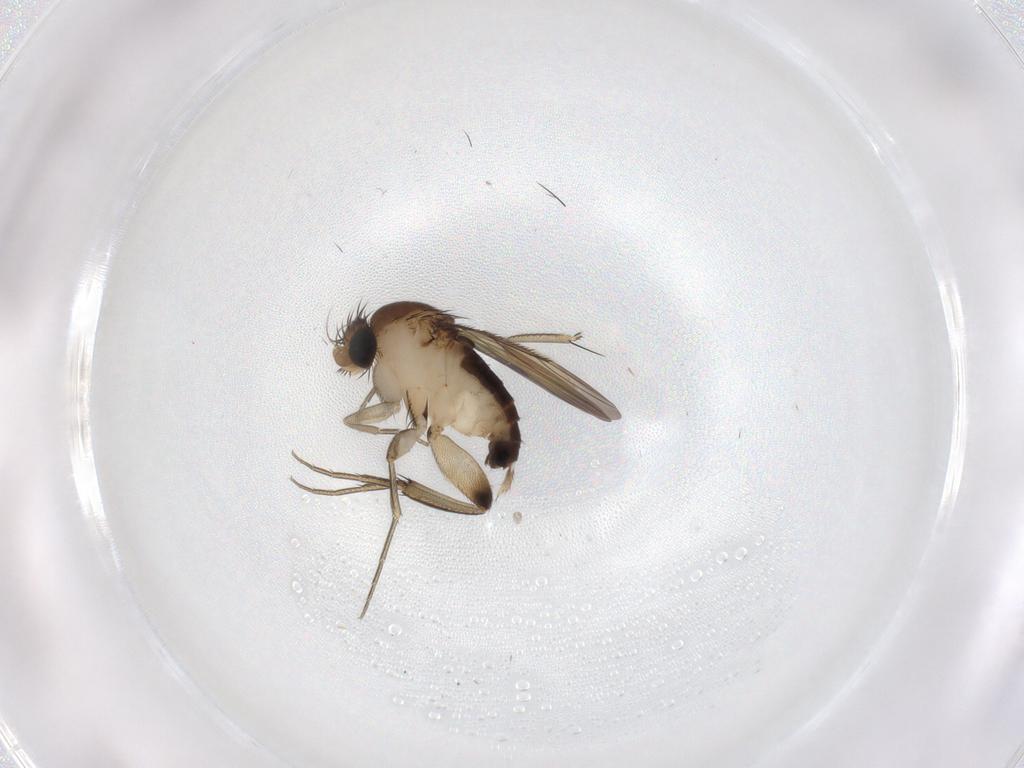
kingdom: Animalia
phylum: Arthropoda
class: Insecta
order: Diptera
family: Phoridae
